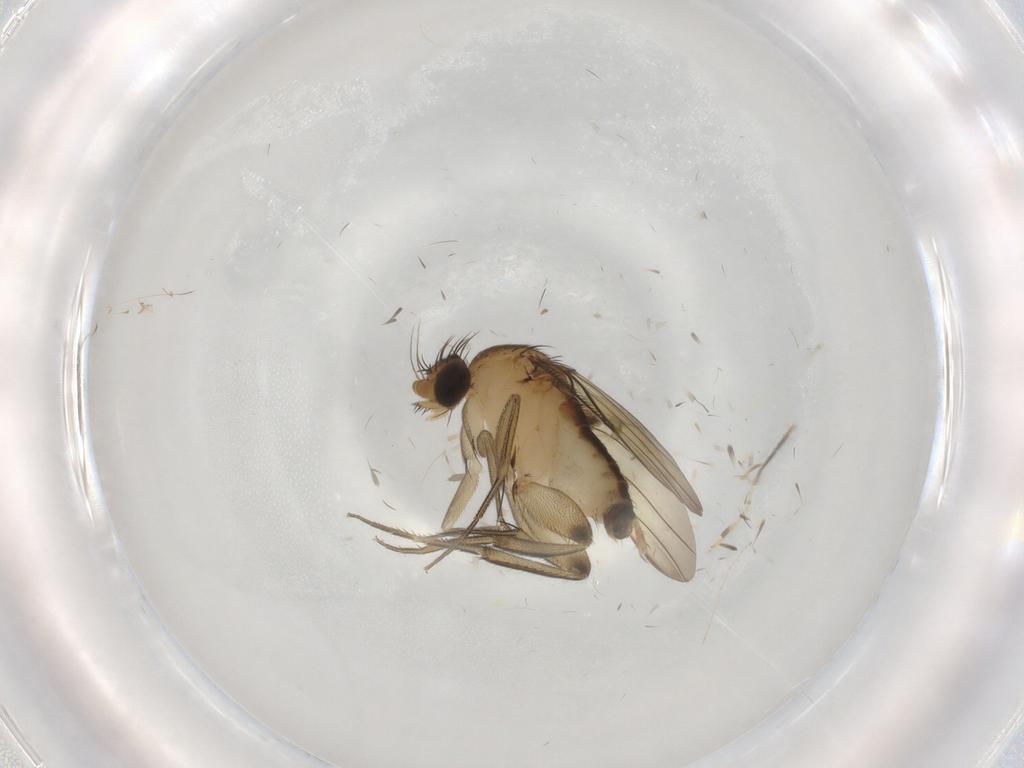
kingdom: Animalia
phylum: Arthropoda
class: Insecta
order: Diptera
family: Phoridae
